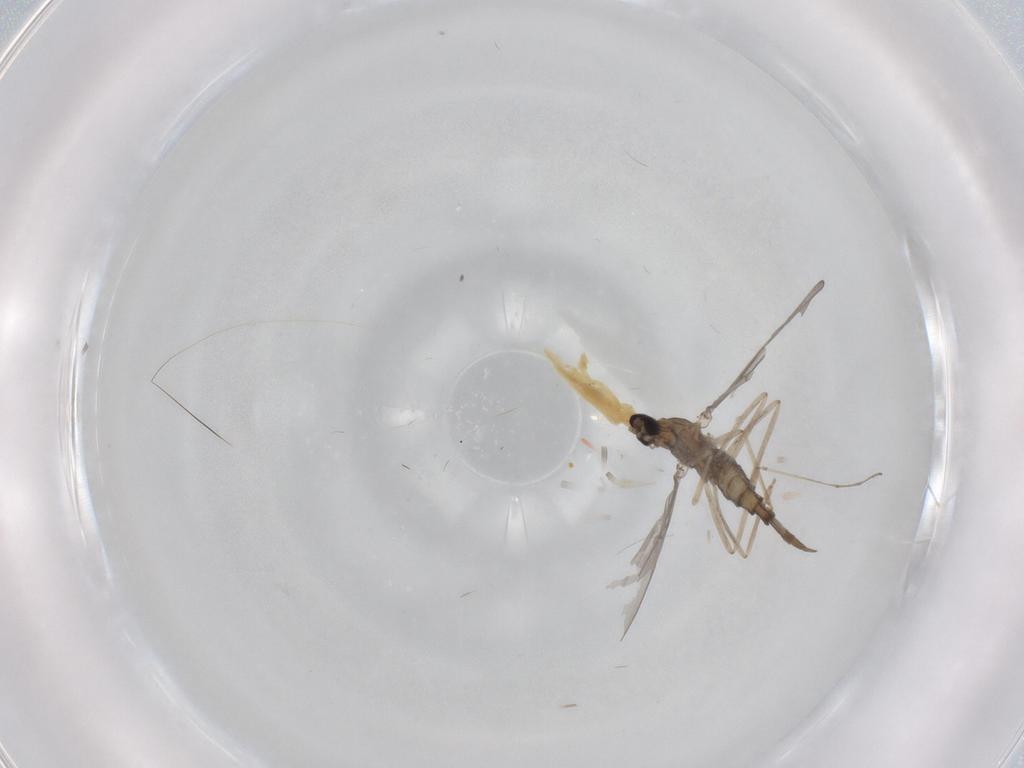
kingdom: Animalia
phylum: Arthropoda
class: Insecta
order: Diptera
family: Cecidomyiidae
